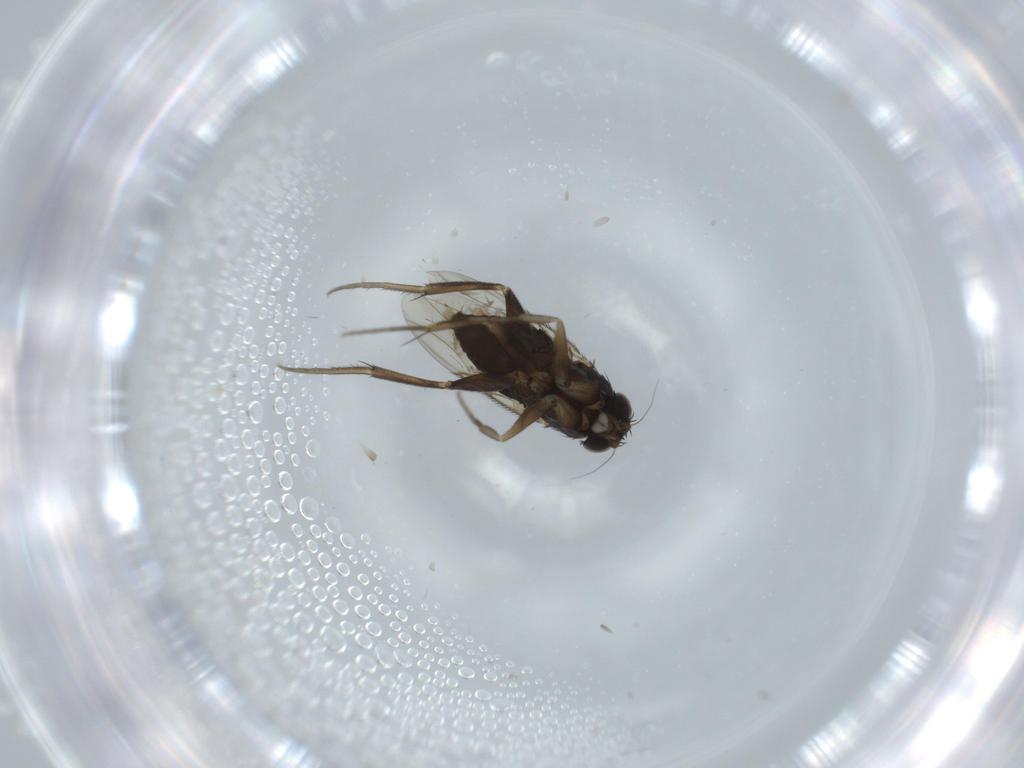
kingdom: Animalia
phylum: Arthropoda
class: Insecta
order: Diptera
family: Phoridae
